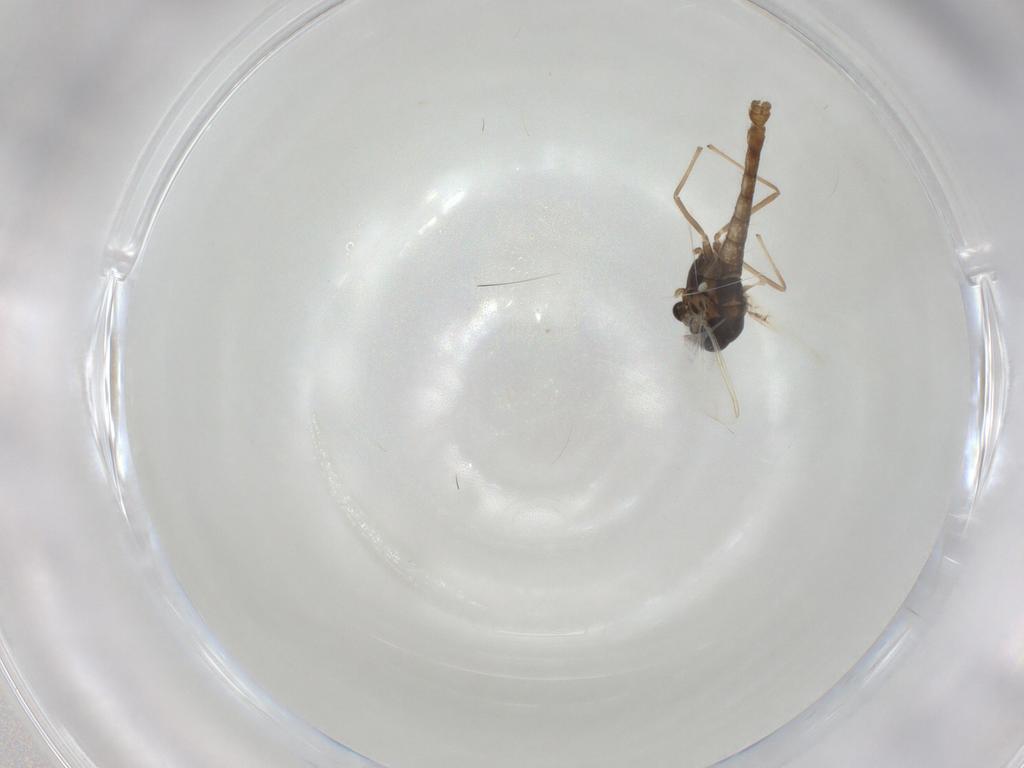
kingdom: Animalia
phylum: Arthropoda
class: Insecta
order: Diptera
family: Chironomidae
